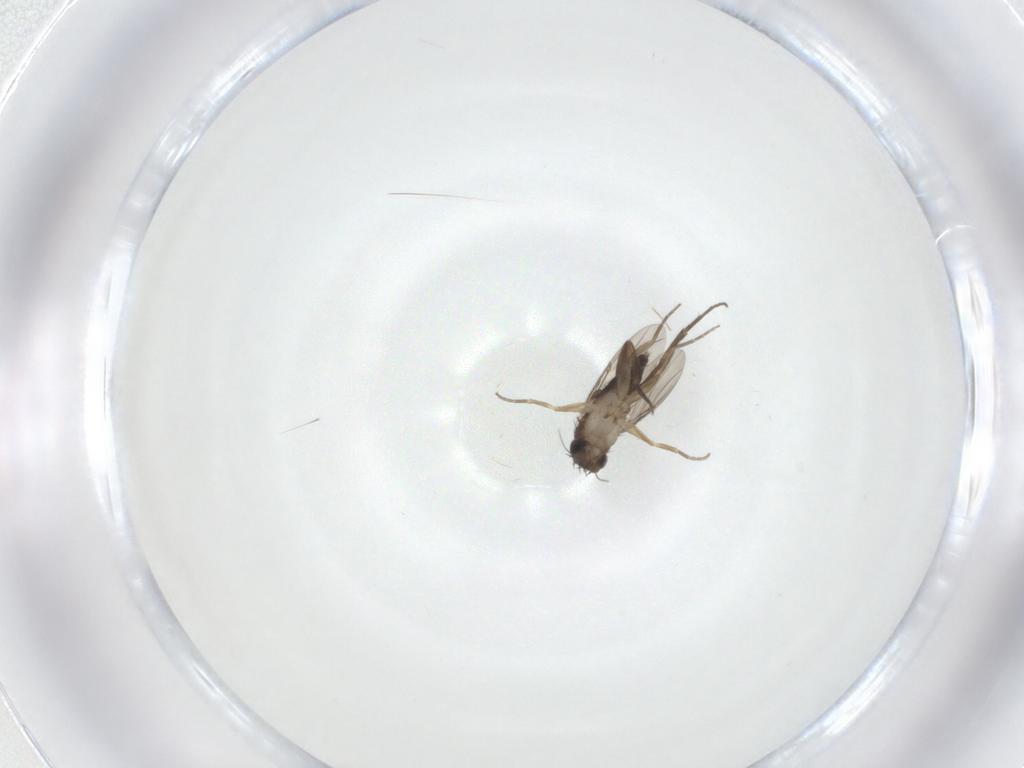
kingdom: Animalia
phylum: Arthropoda
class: Insecta
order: Diptera
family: Phoridae
